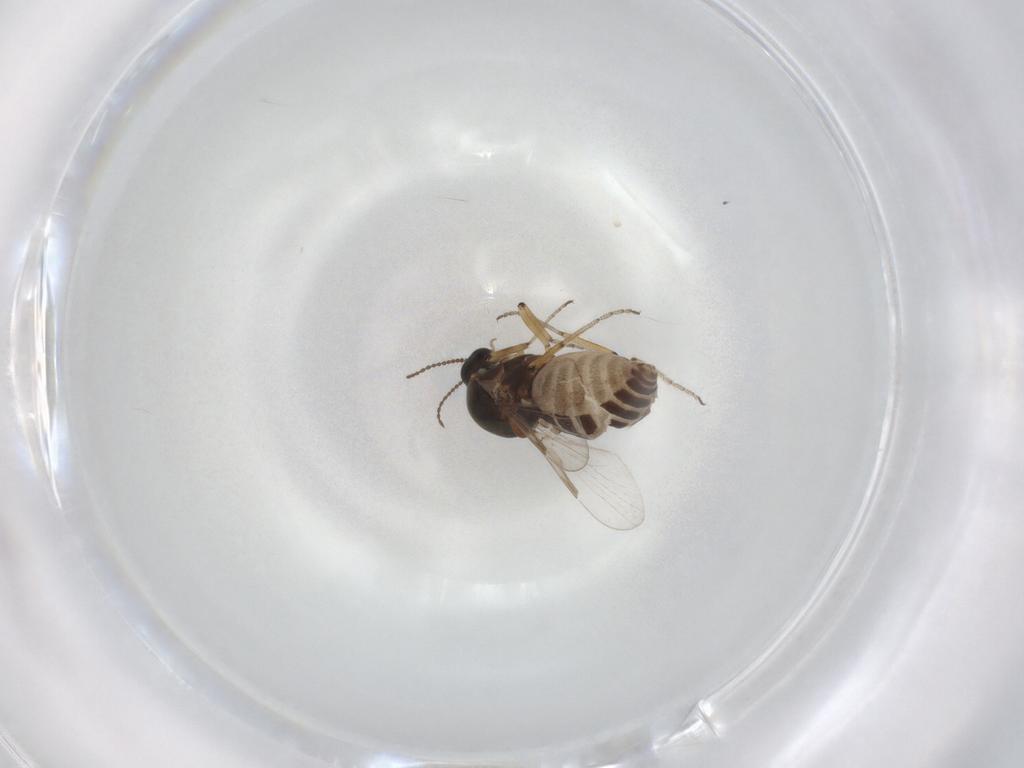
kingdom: Animalia
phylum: Arthropoda
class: Insecta
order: Diptera
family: Ceratopogonidae
